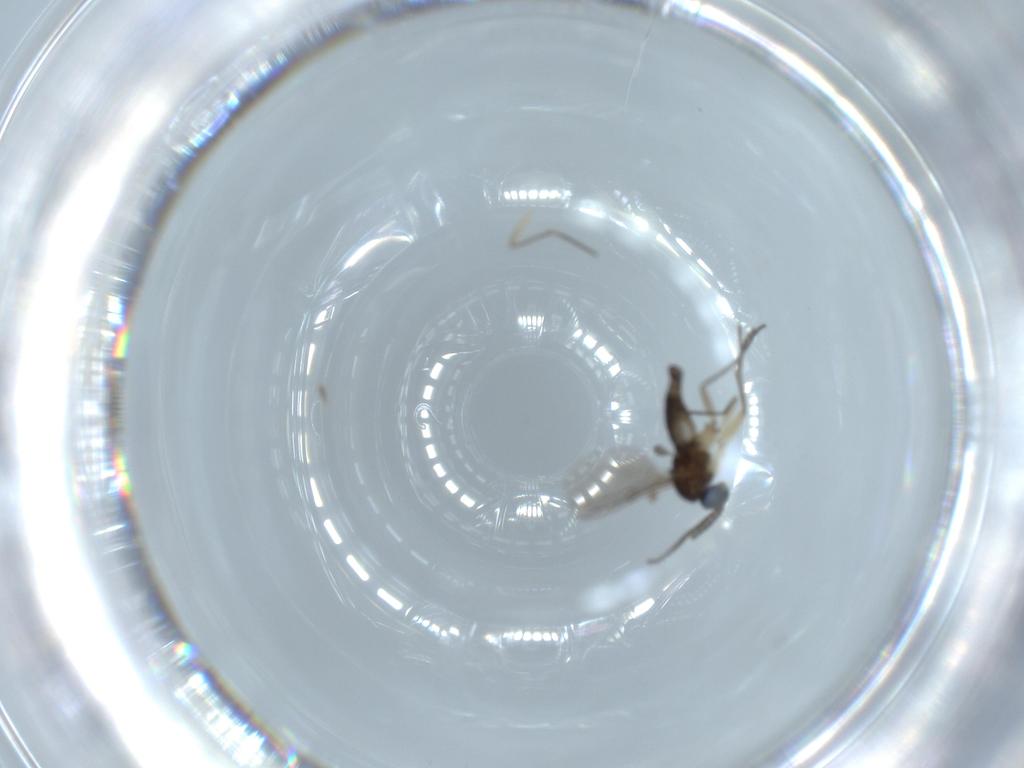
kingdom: Animalia
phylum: Arthropoda
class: Insecta
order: Diptera
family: Sciaridae
